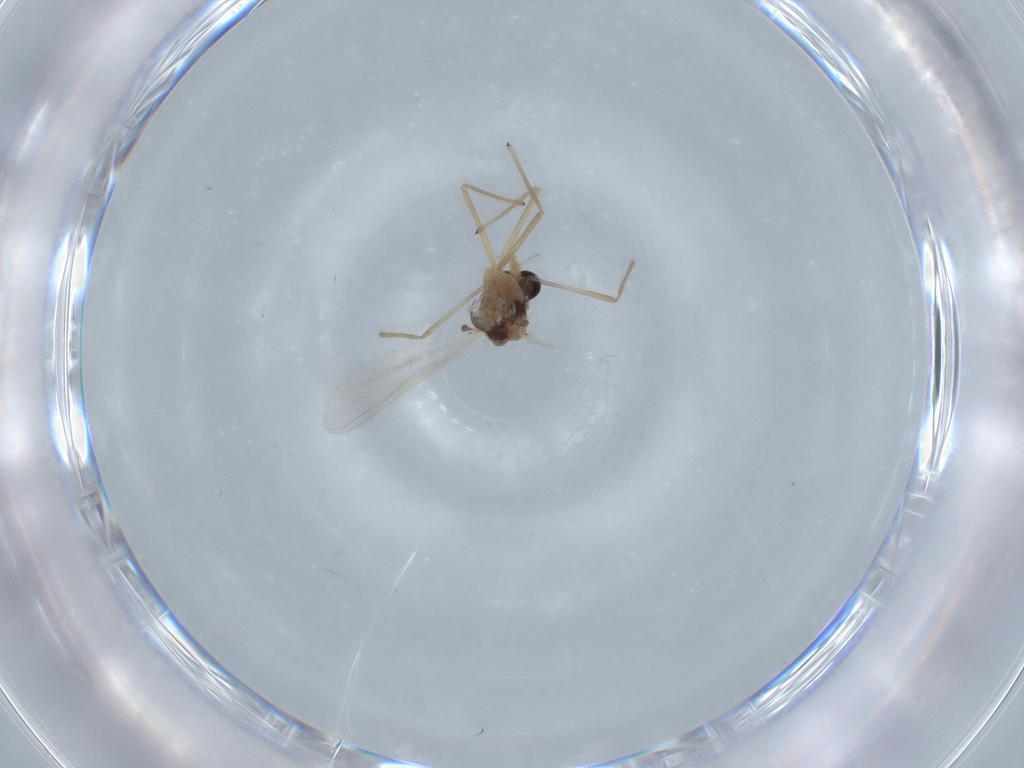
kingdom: Animalia
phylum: Arthropoda
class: Insecta
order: Diptera
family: Chironomidae
